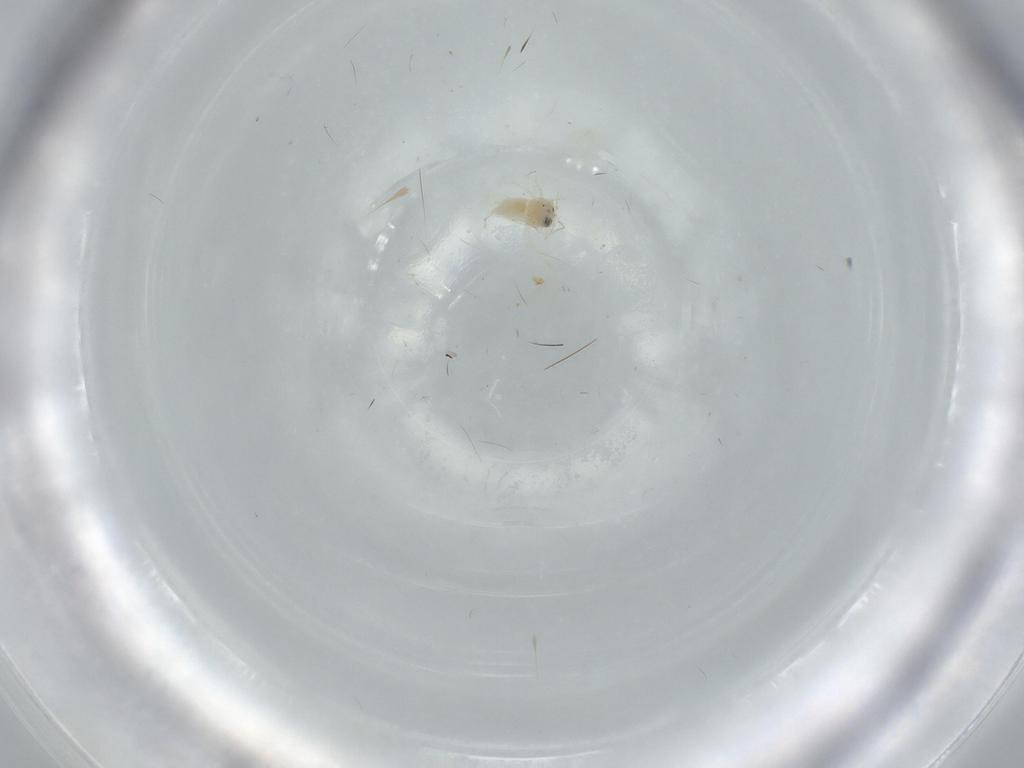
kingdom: Animalia
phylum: Arthropoda
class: Insecta
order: Hemiptera
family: Aleyrodidae
